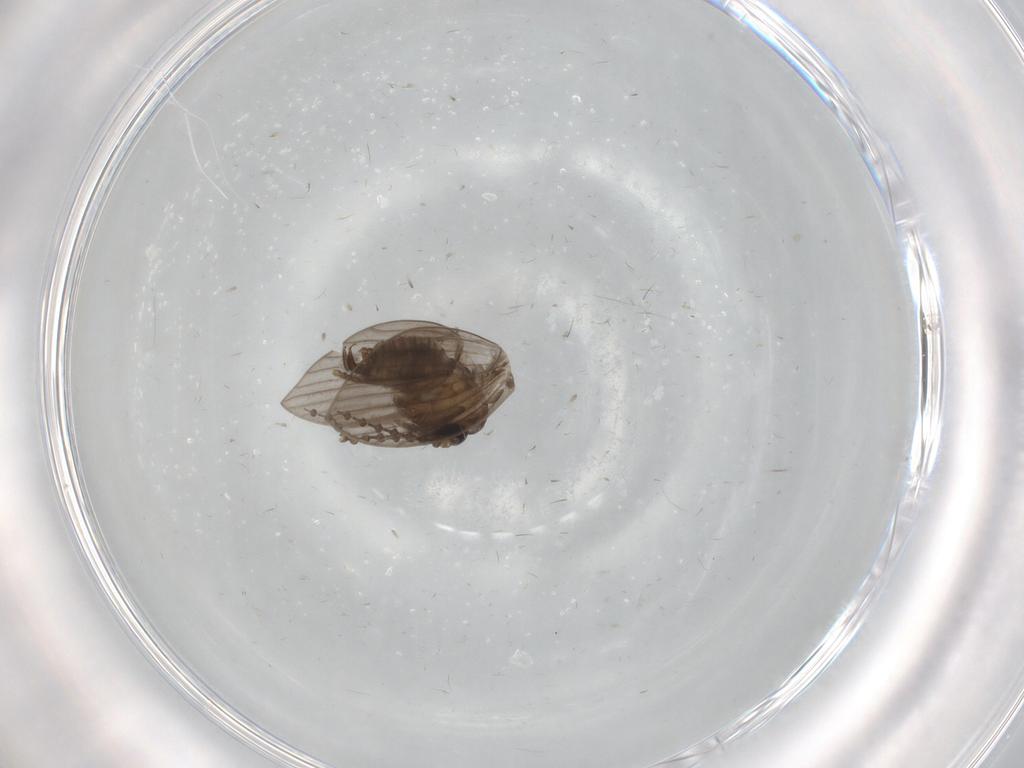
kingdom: Animalia
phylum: Arthropoda
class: Insecta
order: Diptera
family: Psychodidae
